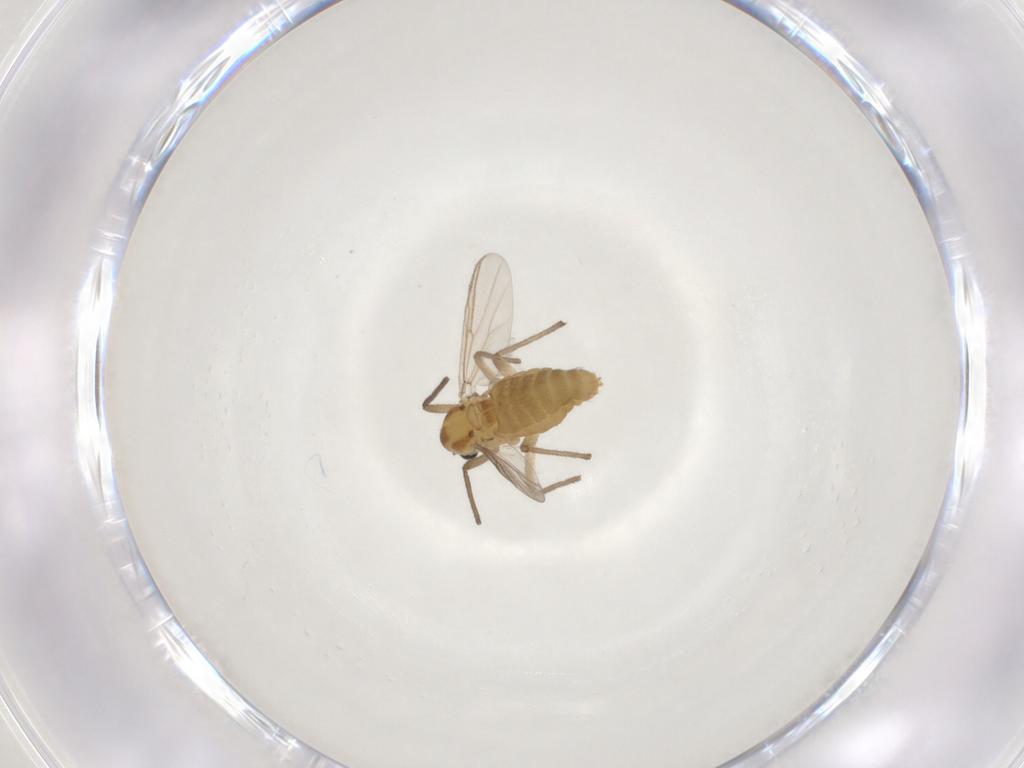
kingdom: Animalia
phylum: Arthropoda
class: Insecta
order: Diptera
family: Chironomidae
